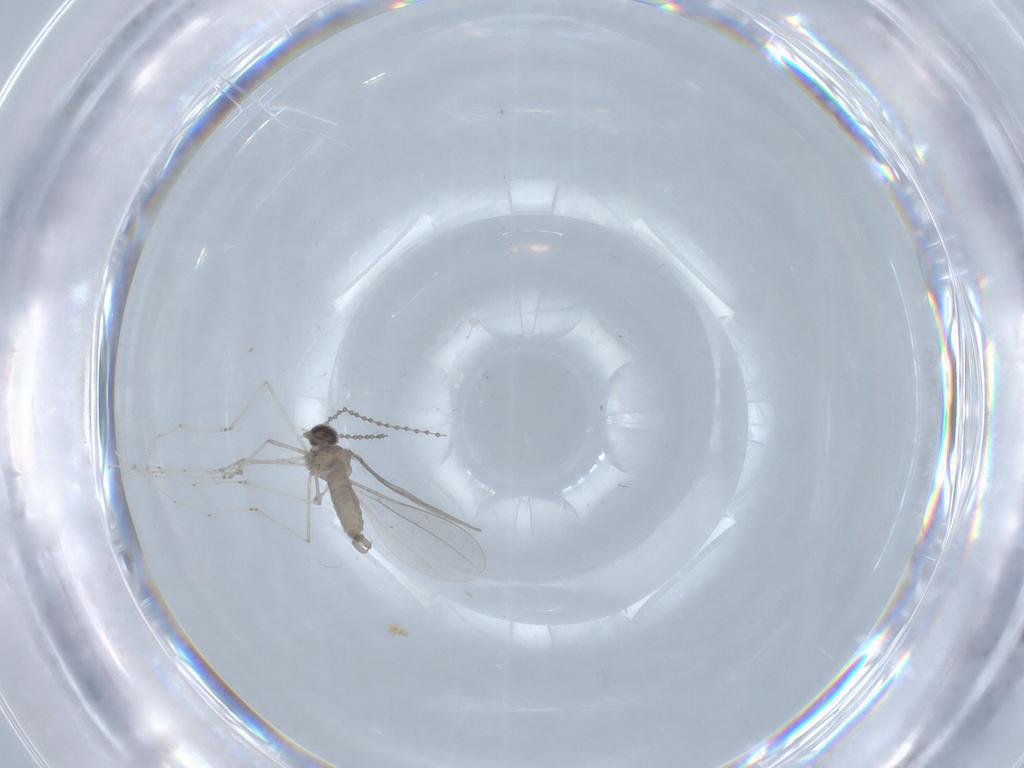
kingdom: Animalia
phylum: Arthropoda
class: Insecta
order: Diptera
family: Cecidomyiidae
